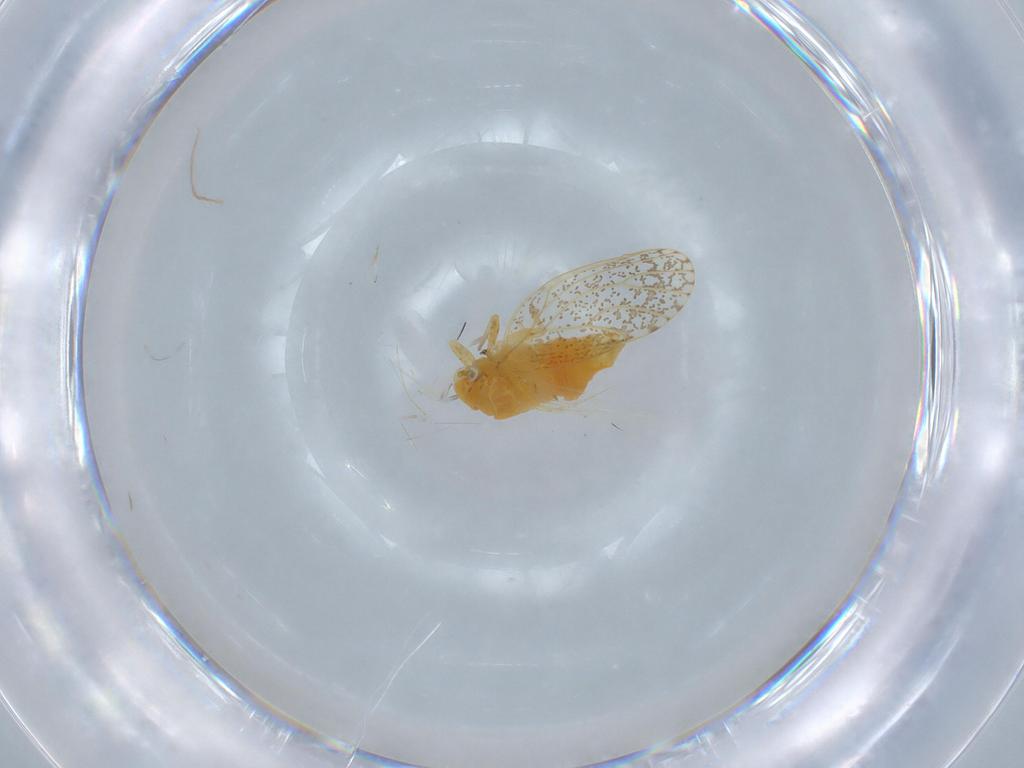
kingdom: Animalia
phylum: Arthropoda
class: Insecta
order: Hemiptera
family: Psyllidae
